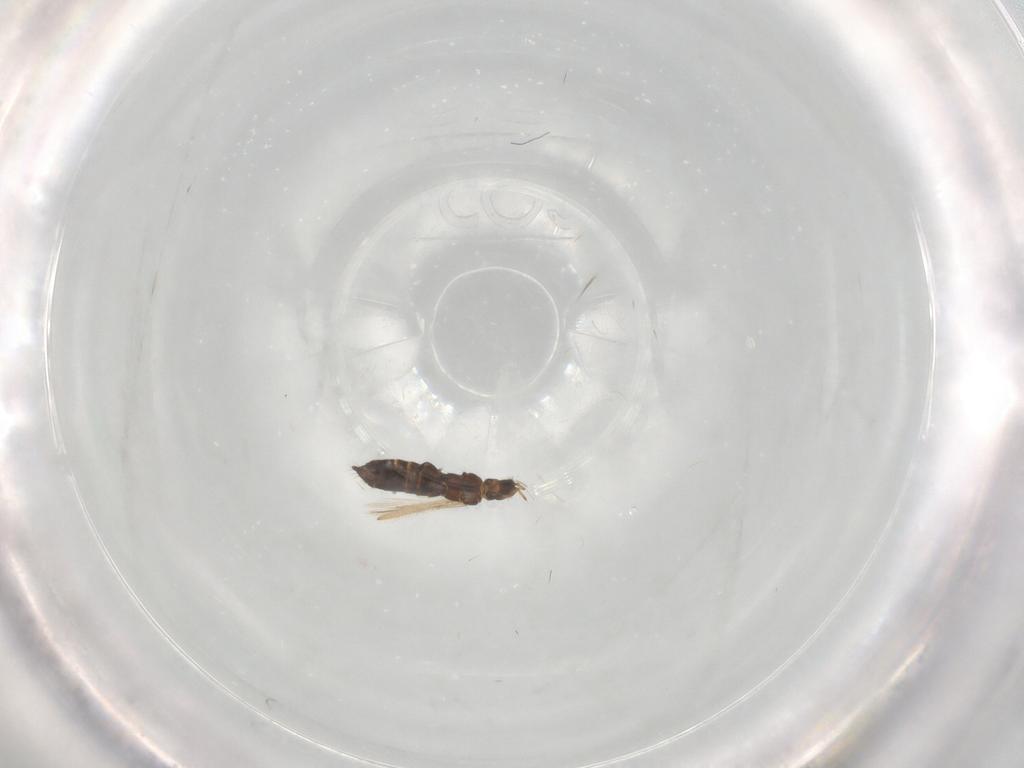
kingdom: Animalia
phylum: Arthropoda
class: Insecta
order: Thysanoptera
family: Thripidae
